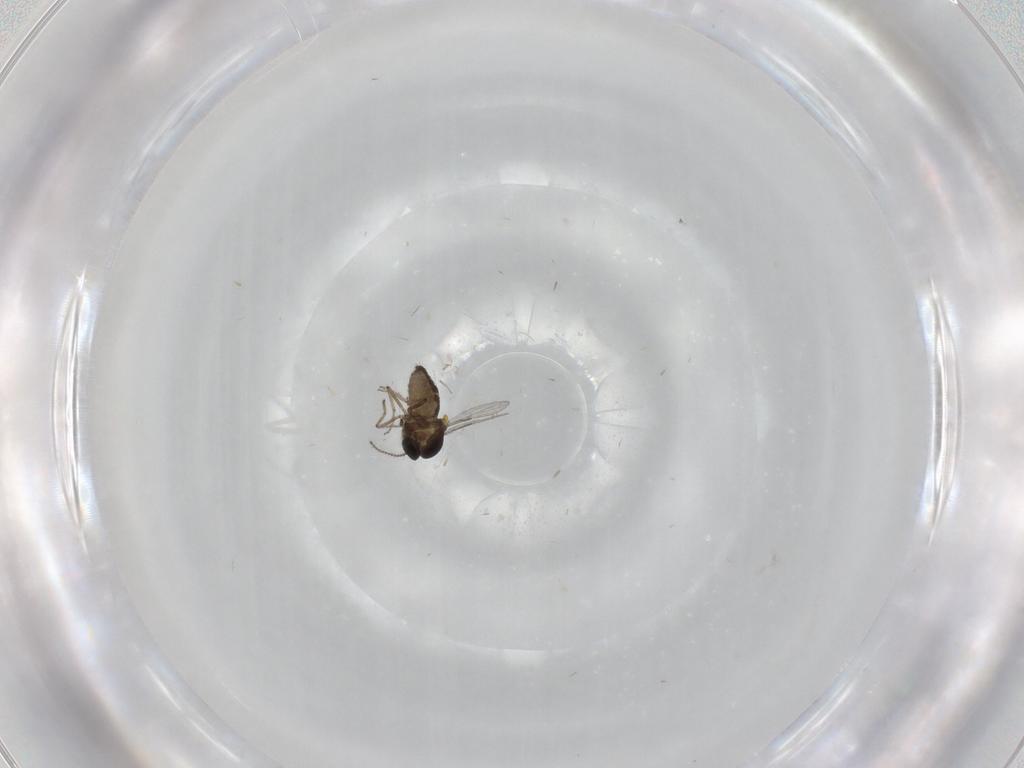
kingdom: Animalia
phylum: Arthropoda
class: Insecta
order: Diptera
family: Ceratopogonidae
